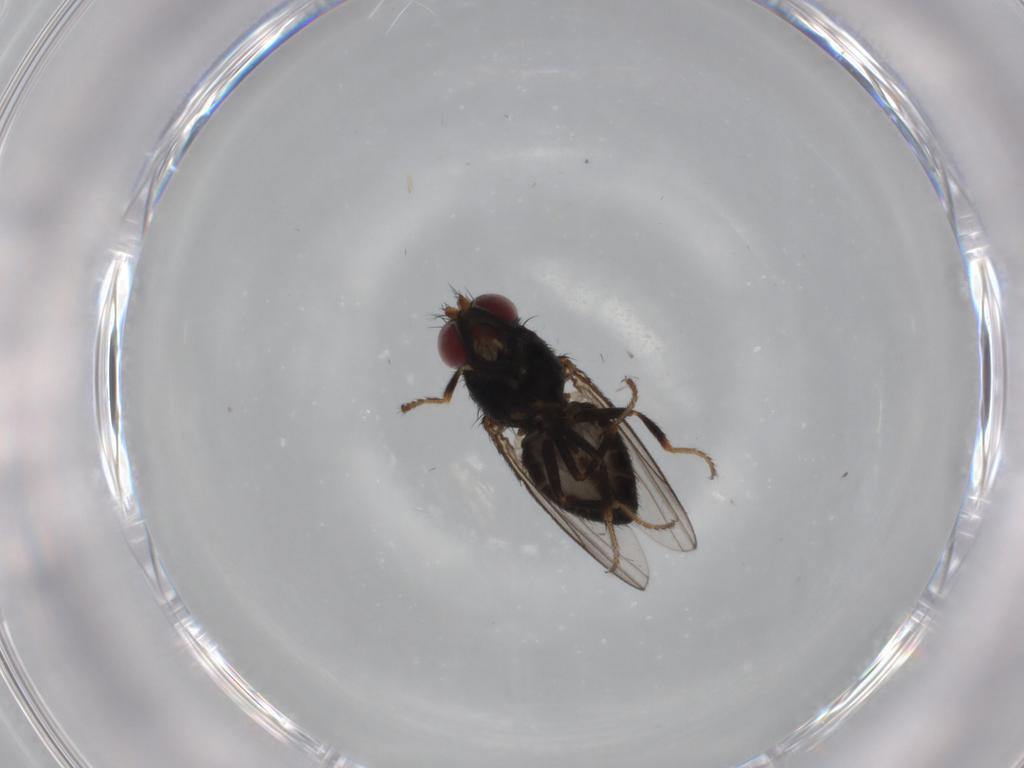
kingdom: Animalia
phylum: Arthropoda
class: Insecta
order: Diptera
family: Ephydridae
